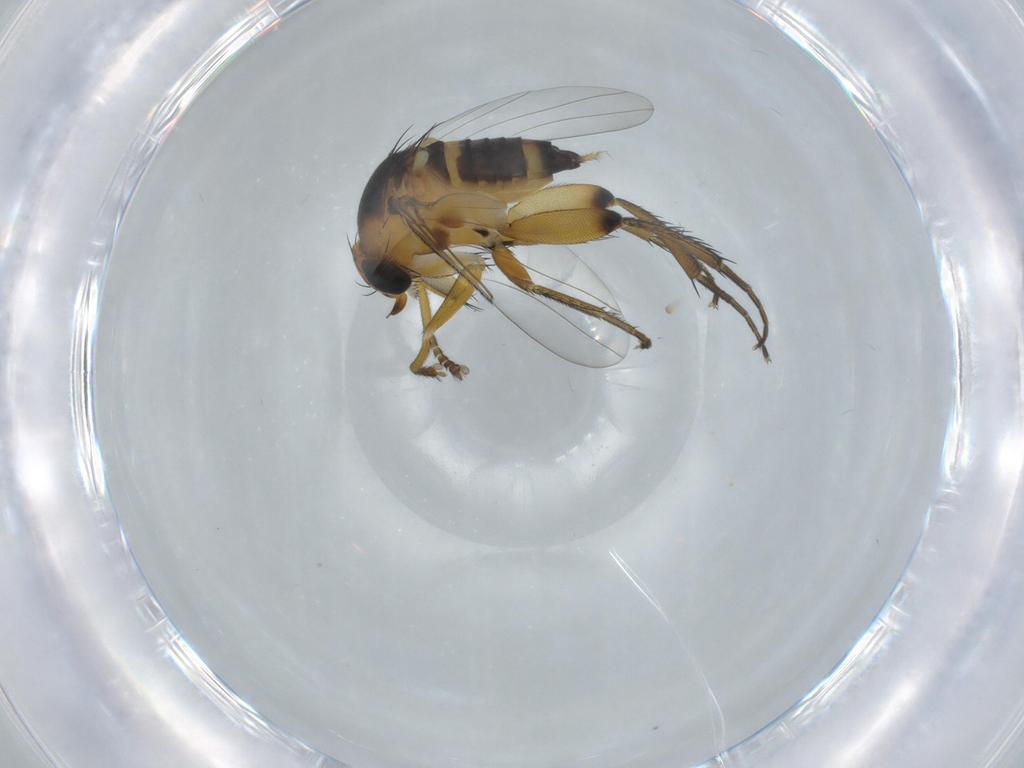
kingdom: Animalia
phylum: Arthropoda
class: Insecta
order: Diptera
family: Phoridae
